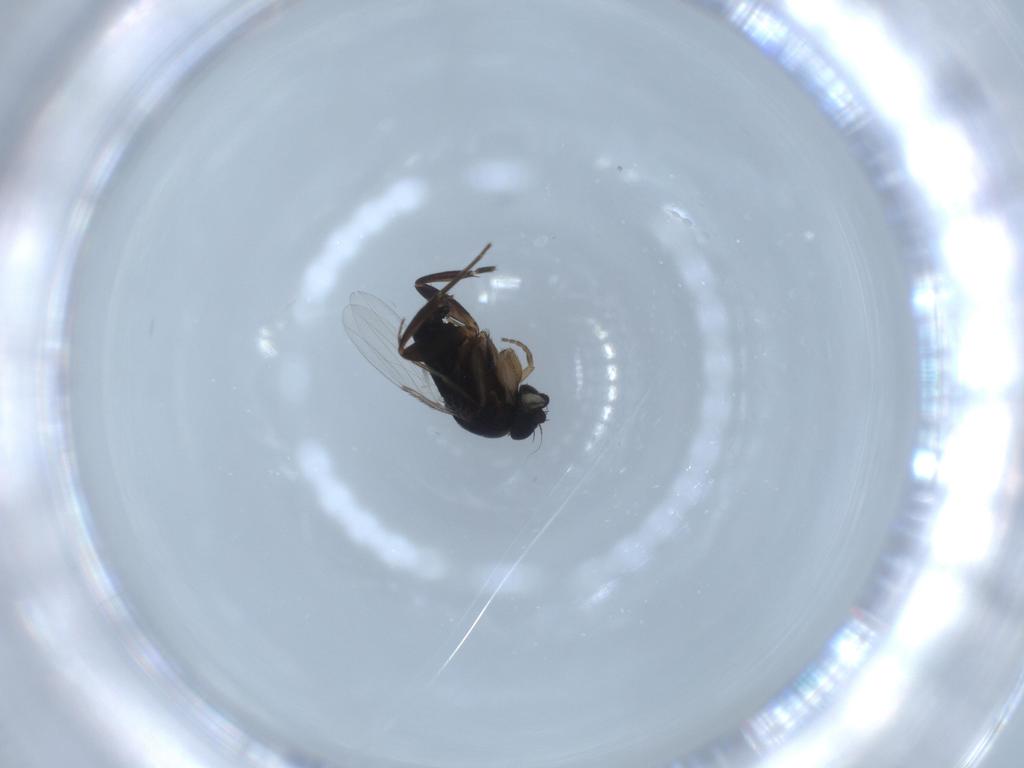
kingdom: Animalia
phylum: Arthropoda
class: Insecta
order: Diptera
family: Phoridae
